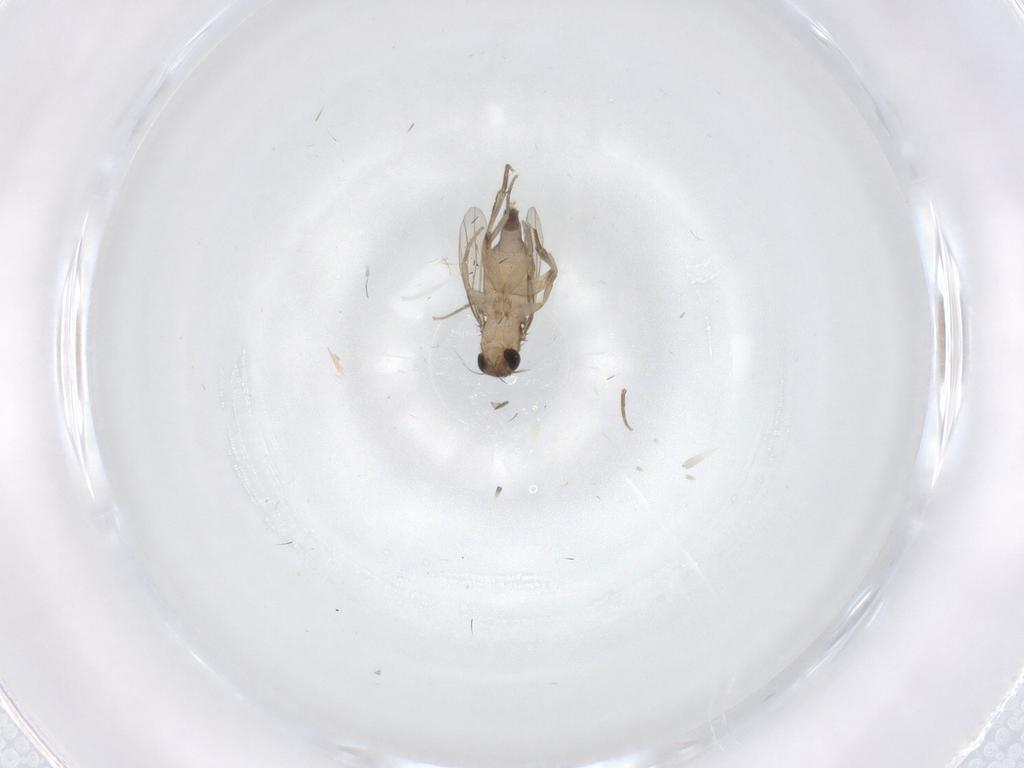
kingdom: Animalia
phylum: Arthropoda
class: Insecta
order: Diptera
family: Phoridae
